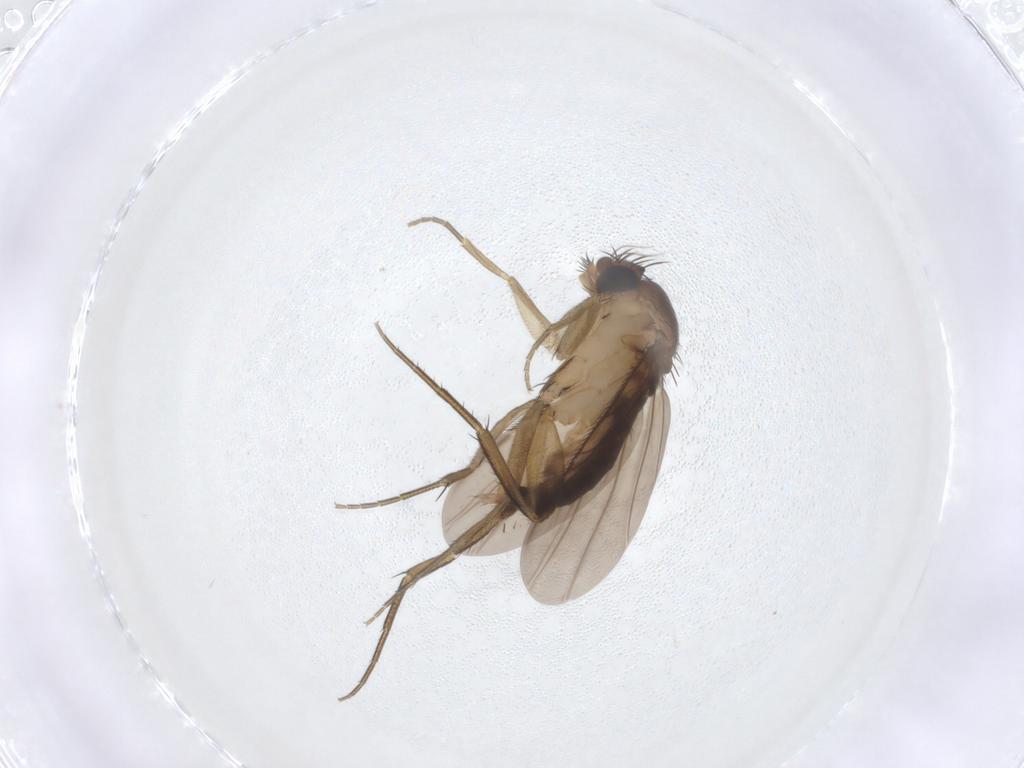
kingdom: Animalia
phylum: Arthropoda
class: Insecta
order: Diptera
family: Phoridae
